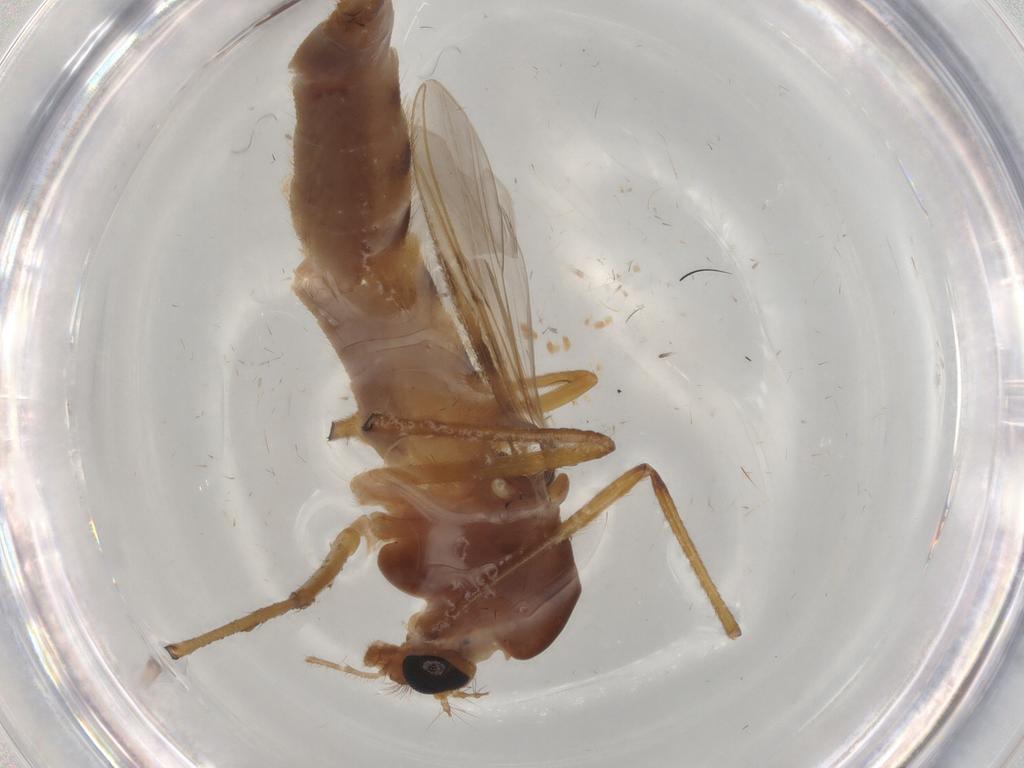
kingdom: Animalia
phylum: Arthropoda
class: Insecta
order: Diptera
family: Chironomidae
